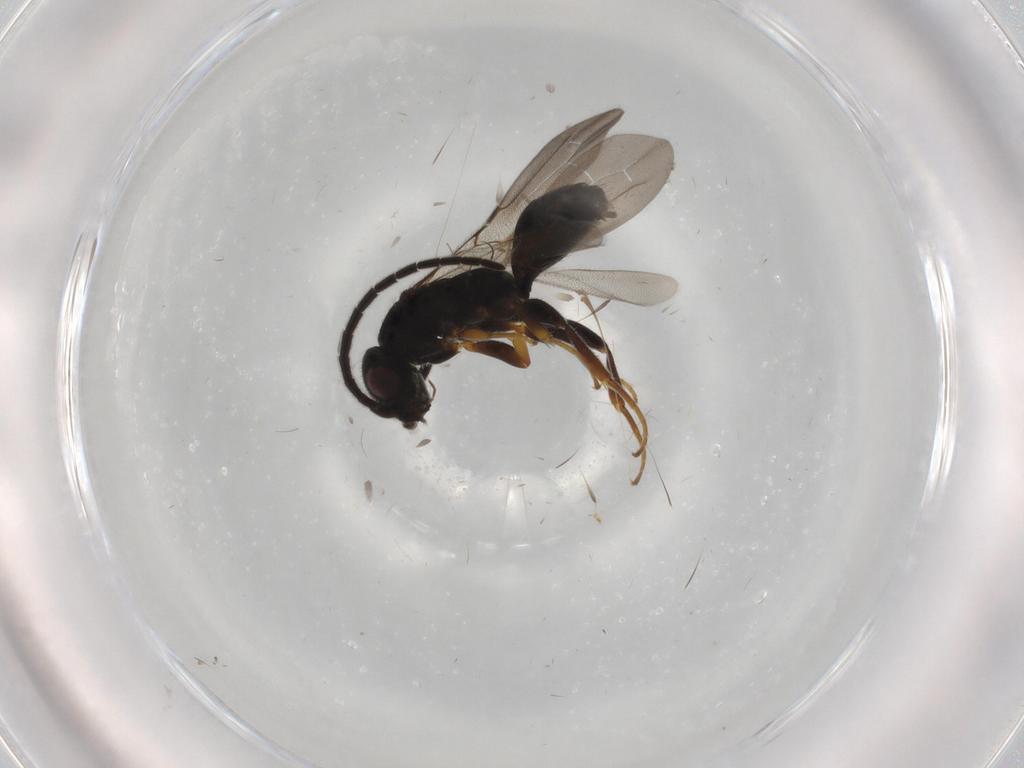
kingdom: Animalia
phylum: Arthropoda
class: Insecta
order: Hymenoptera
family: Bethylidae
